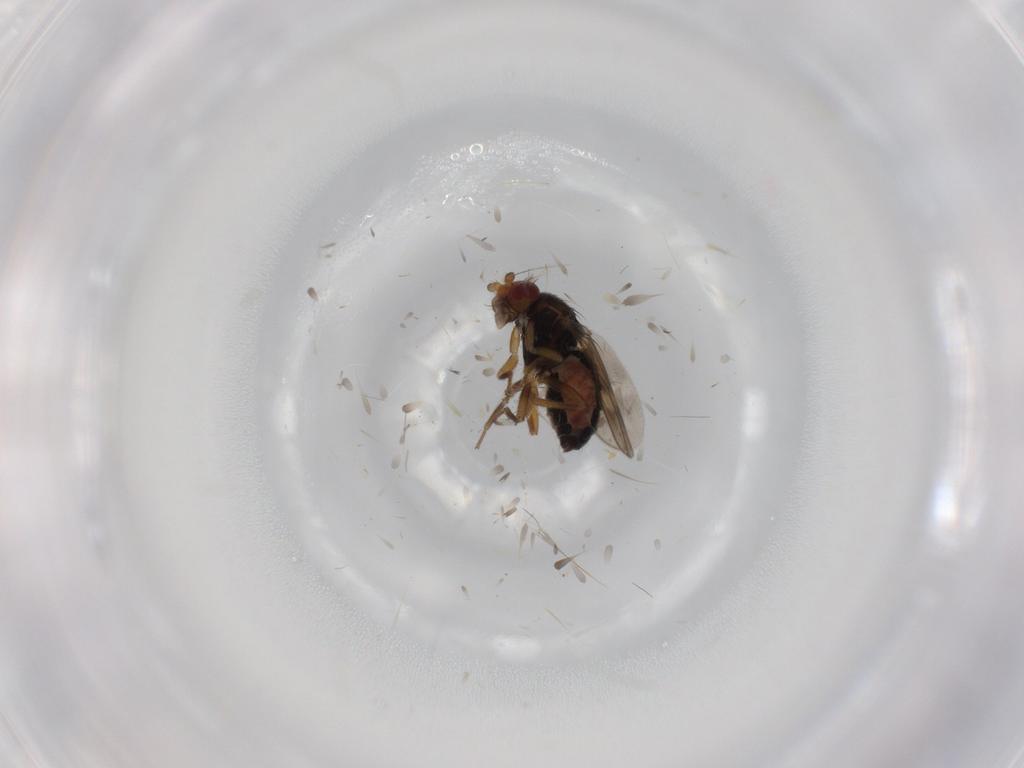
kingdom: Animalia
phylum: Arthropoda
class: Insecta
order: Diptera
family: Sphaeroceridae
